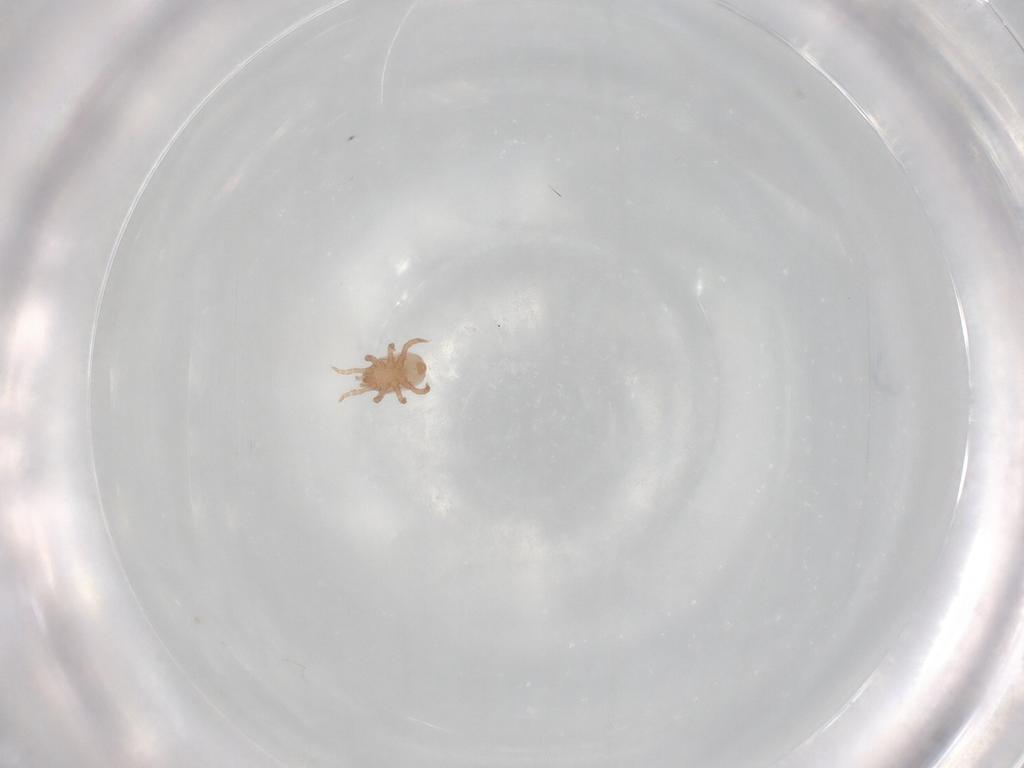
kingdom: Animalia
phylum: Arthropoda
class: Arachnida
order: Mesostigmata
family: Halolaelapidae
